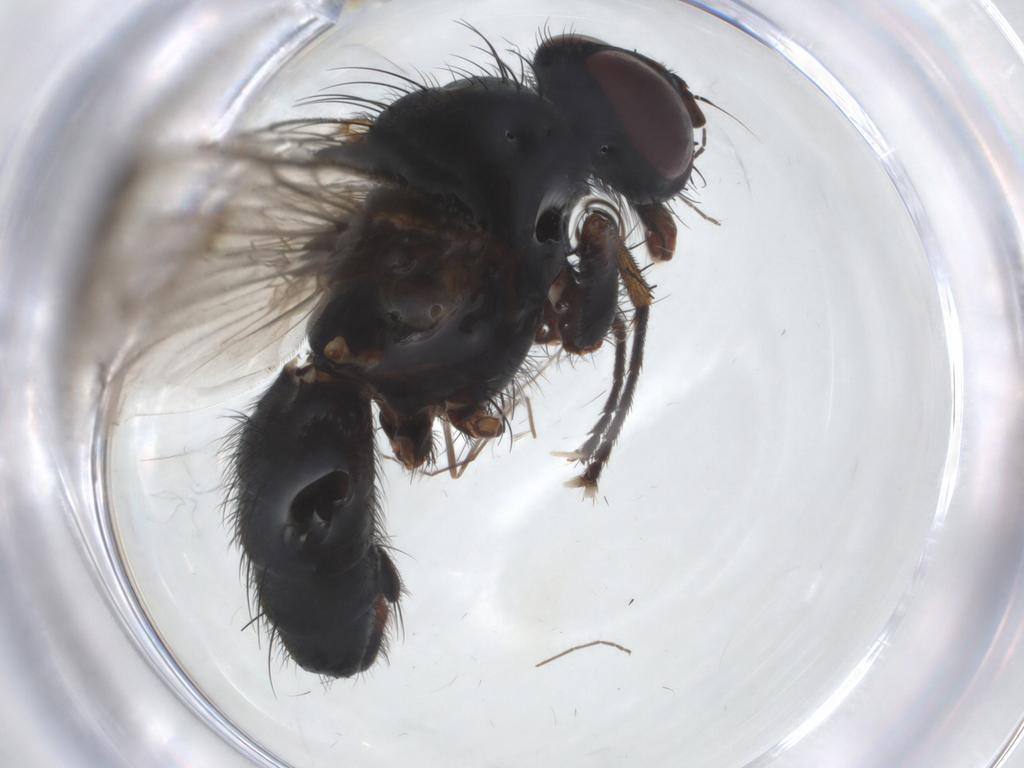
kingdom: Animalia
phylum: Arthropoda
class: Insecta
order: Diptera
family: Anthomyiidae
